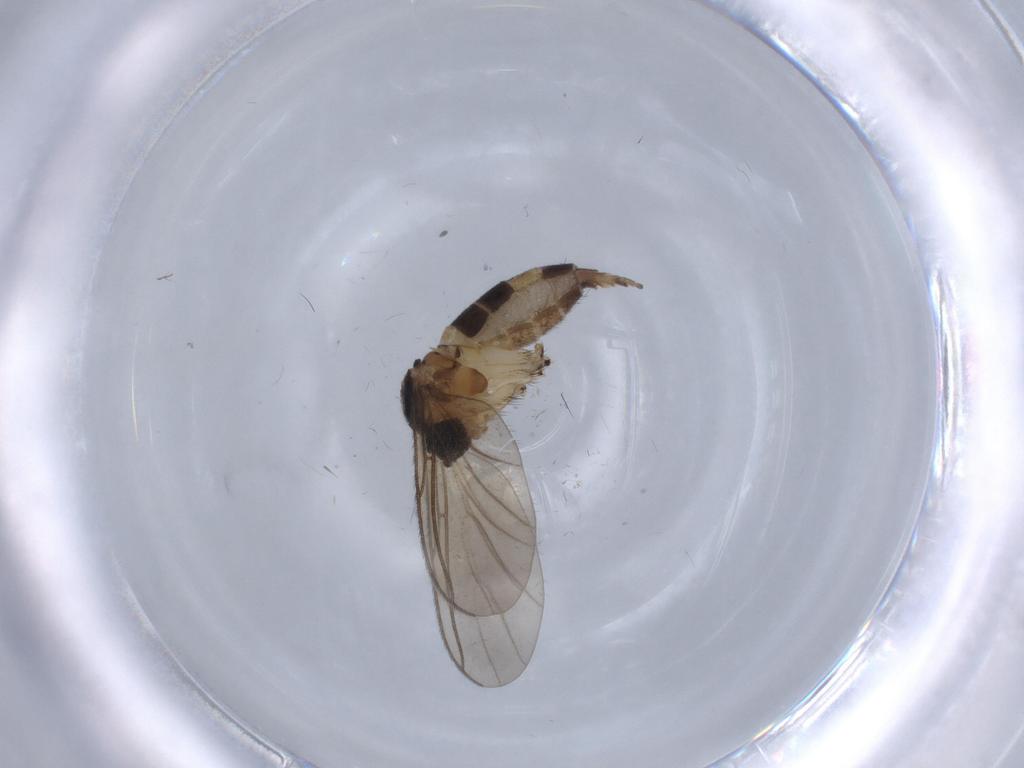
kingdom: Animalia
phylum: Arthropoda
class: Insecta
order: Diptera
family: Sciaridae
